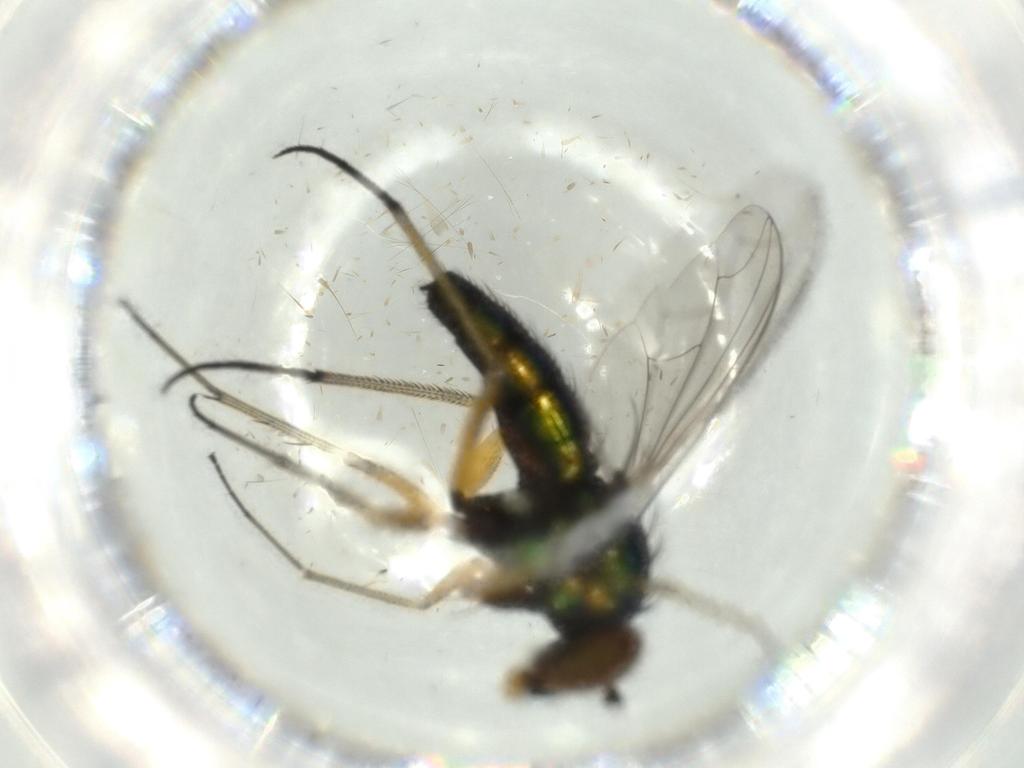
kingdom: Animalia
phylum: Arthropoda
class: Insecta
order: Diptera
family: Dolichopodidae
